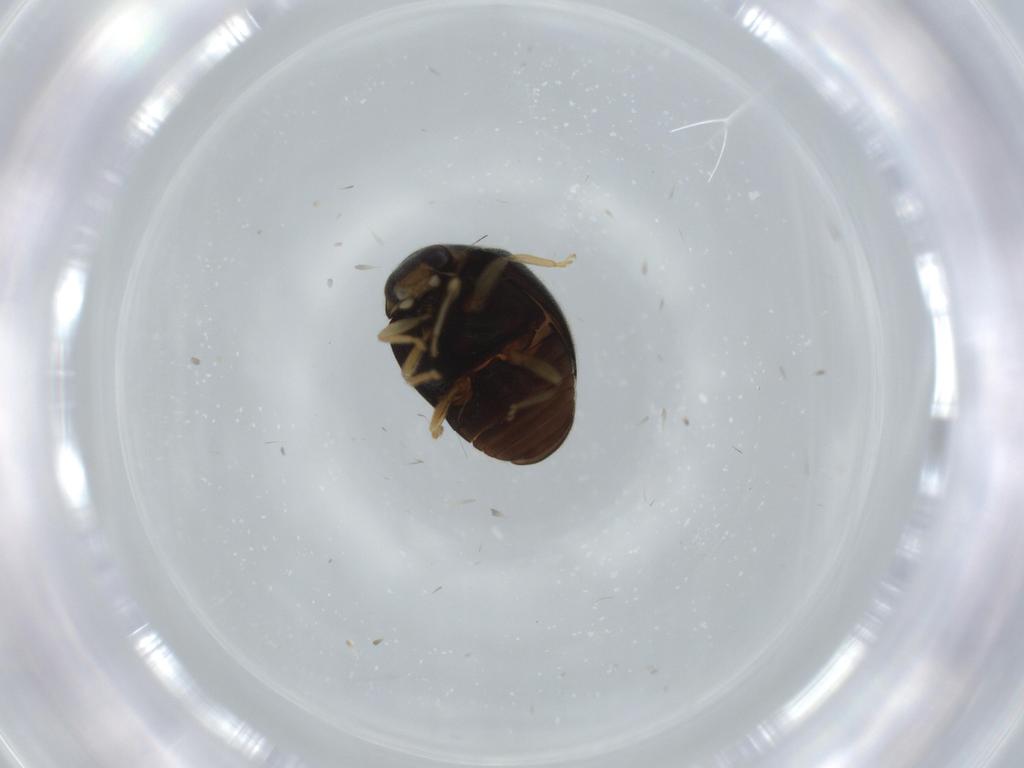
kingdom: Animalia
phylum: Arthropoda
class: Insecta
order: Coleoptera
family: Coccinellidae
